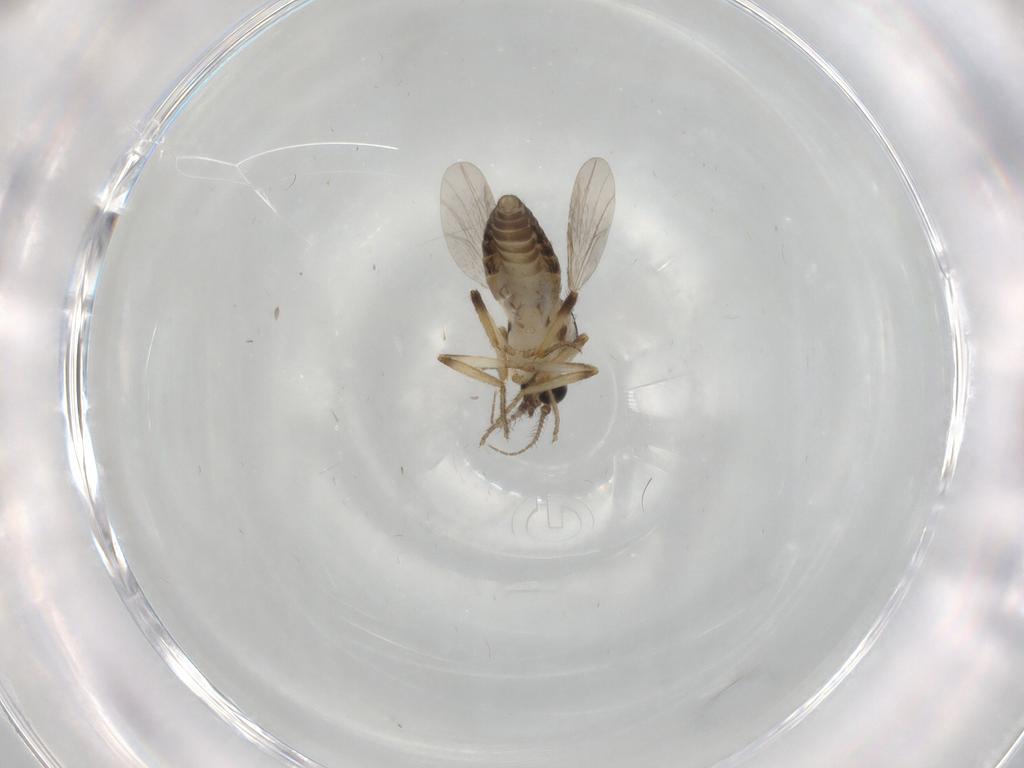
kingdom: Animalia
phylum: Arthropoda
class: Insecta
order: Diptera
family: Ceratopogonidae
